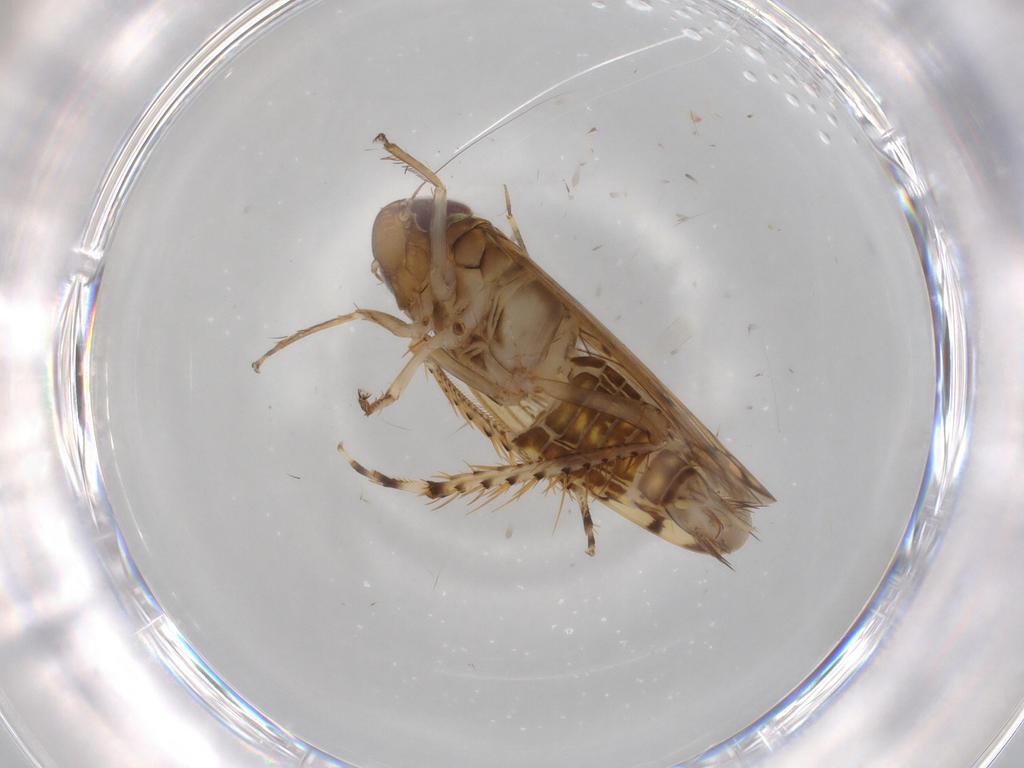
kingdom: Animalia
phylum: Arthropoda
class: Insecta
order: Hemiptera
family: Cicadellidae
